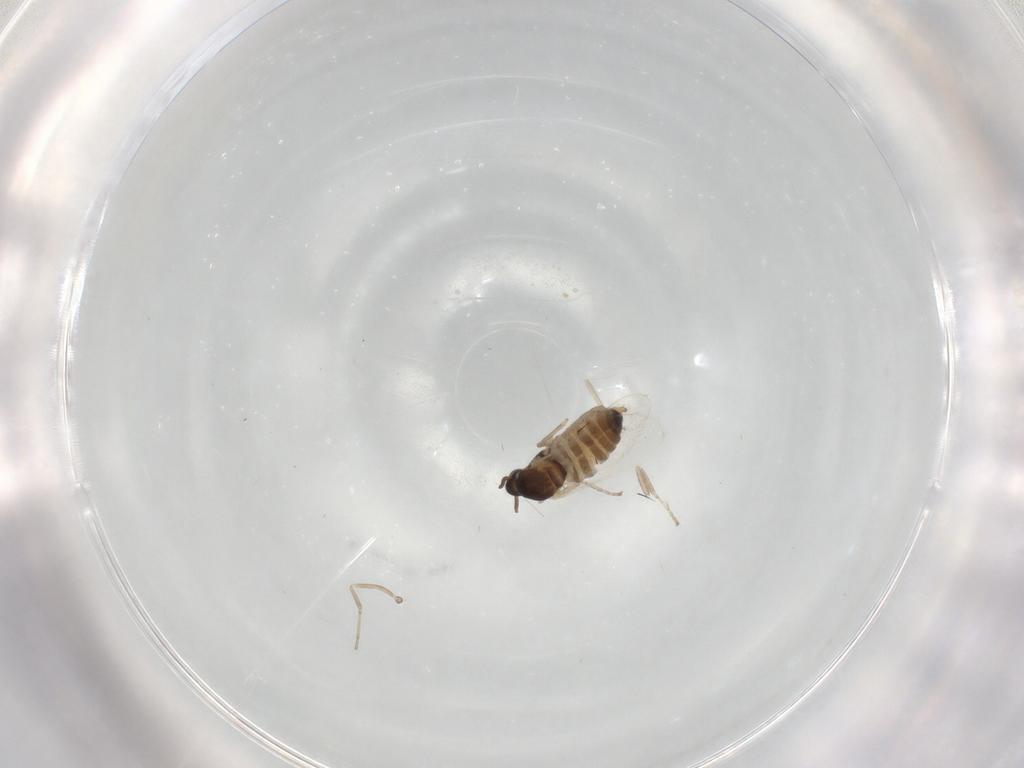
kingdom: Animalia
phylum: Arthropoda
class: Insecta
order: Diptera
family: Cecidomyiidae
